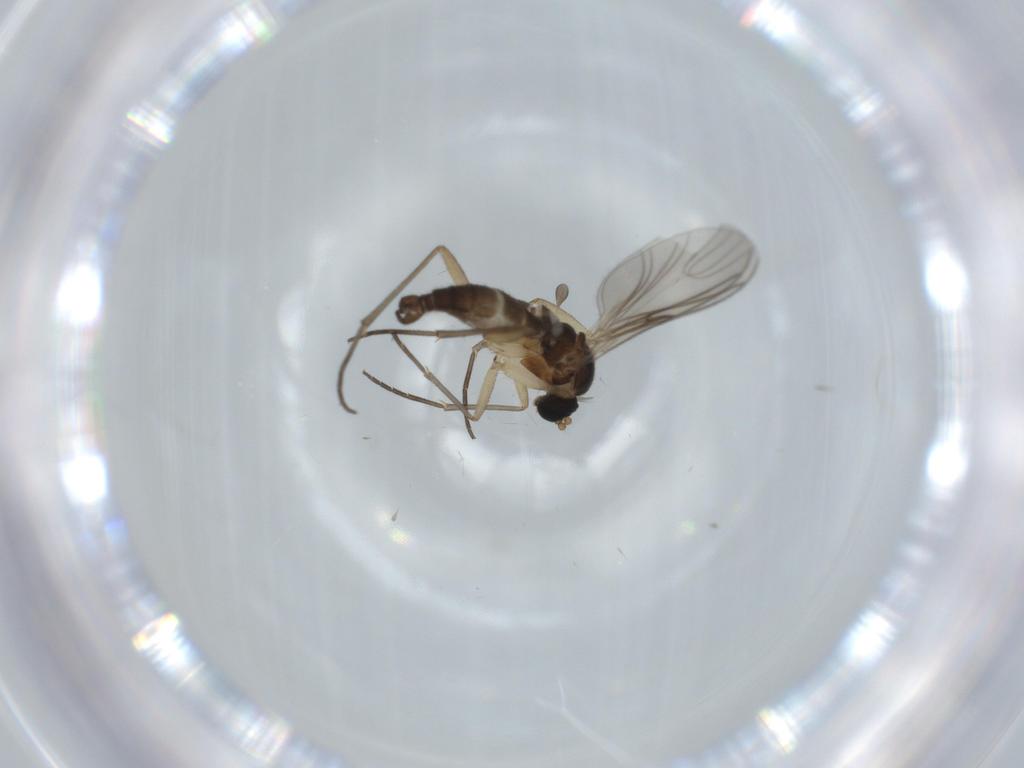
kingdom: Animalia
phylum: Arthropoda
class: Insecta
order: Diptera
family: Sciaridae
